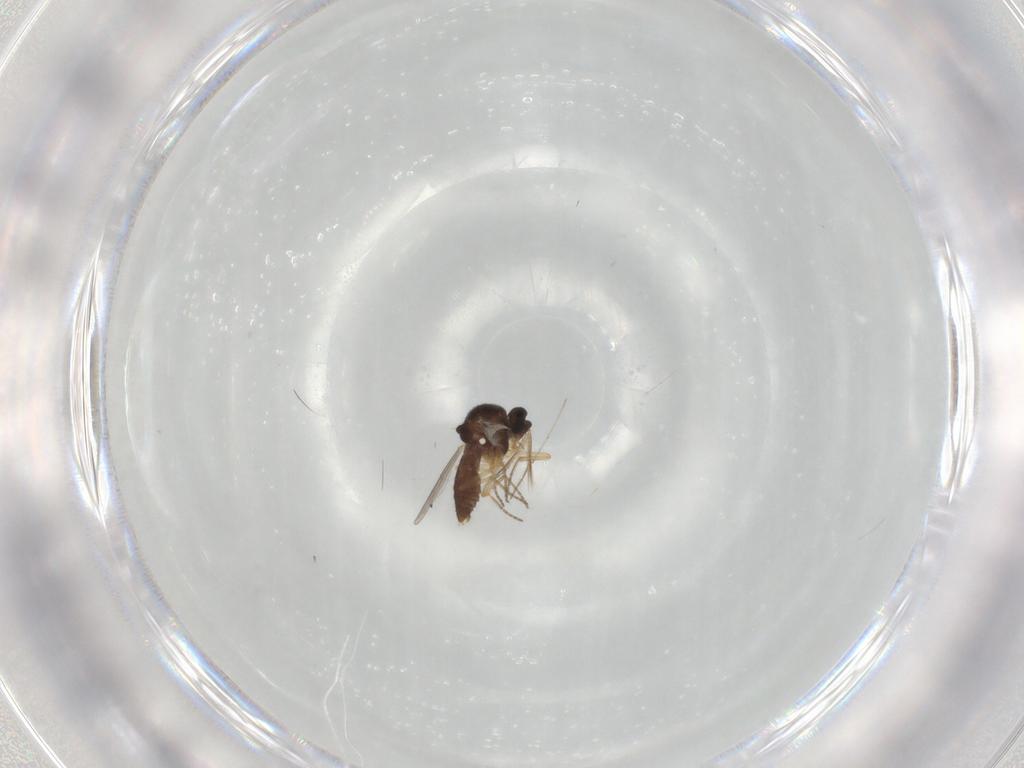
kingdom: Animalia
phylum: Arthropoda
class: Insecta
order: Diptera
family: Ceratopogonidae
